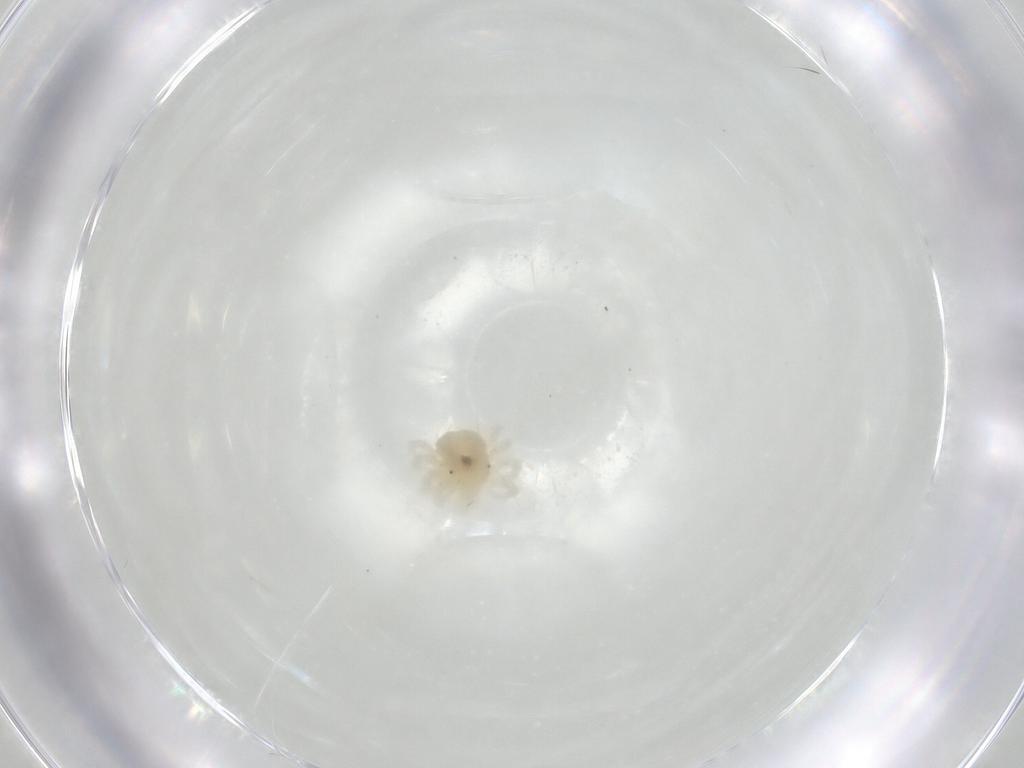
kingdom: Animalia
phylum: Arthropoda
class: Arachnida
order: Trombidiformes
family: Anystidae
